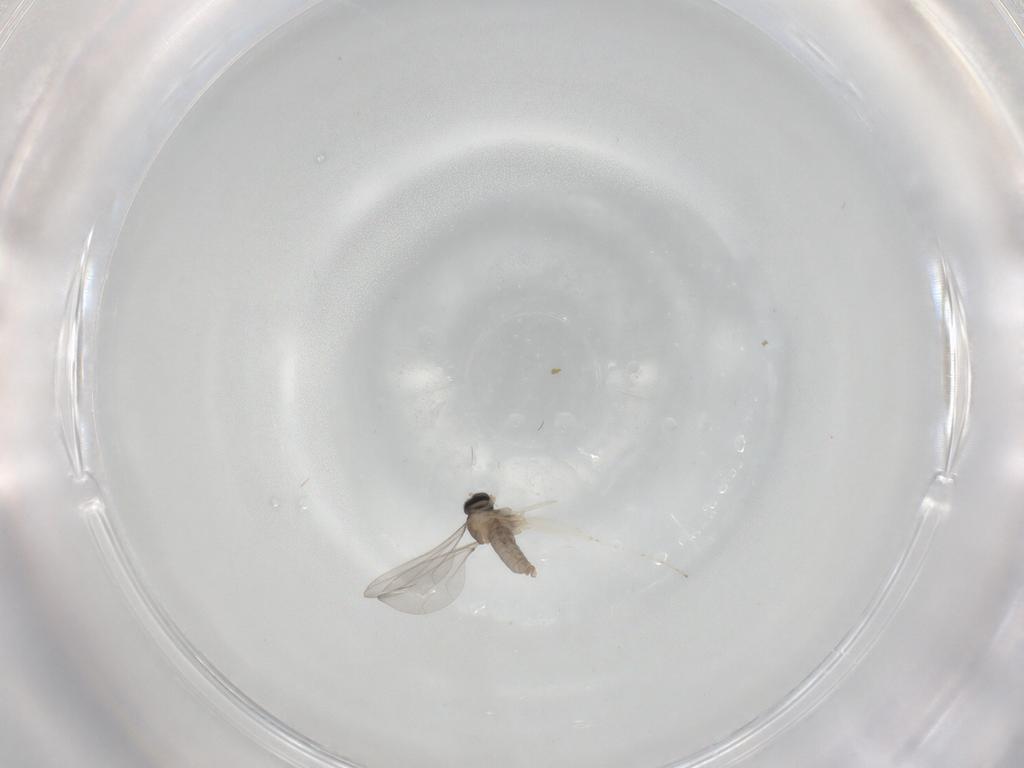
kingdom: Animalia
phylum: Arthropoda
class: Insecta
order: Diptera
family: Cecidomyiidae
